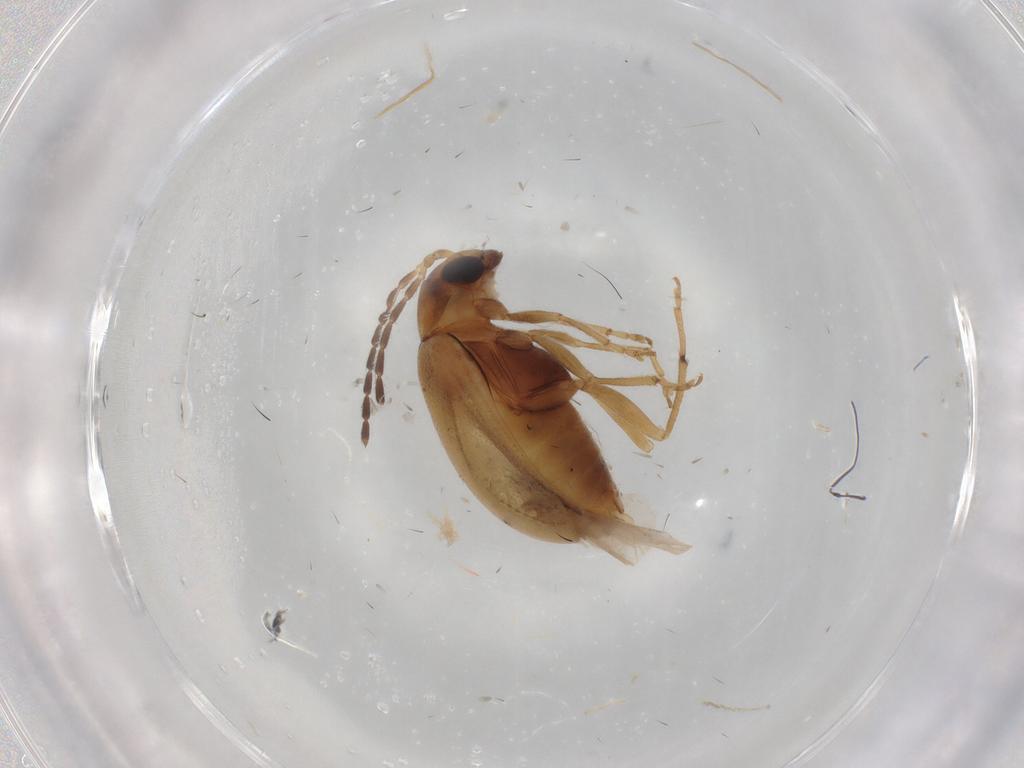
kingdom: Animalia
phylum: Arthropoda
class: Insecta
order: Coleoptera
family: Chrysomelidae
